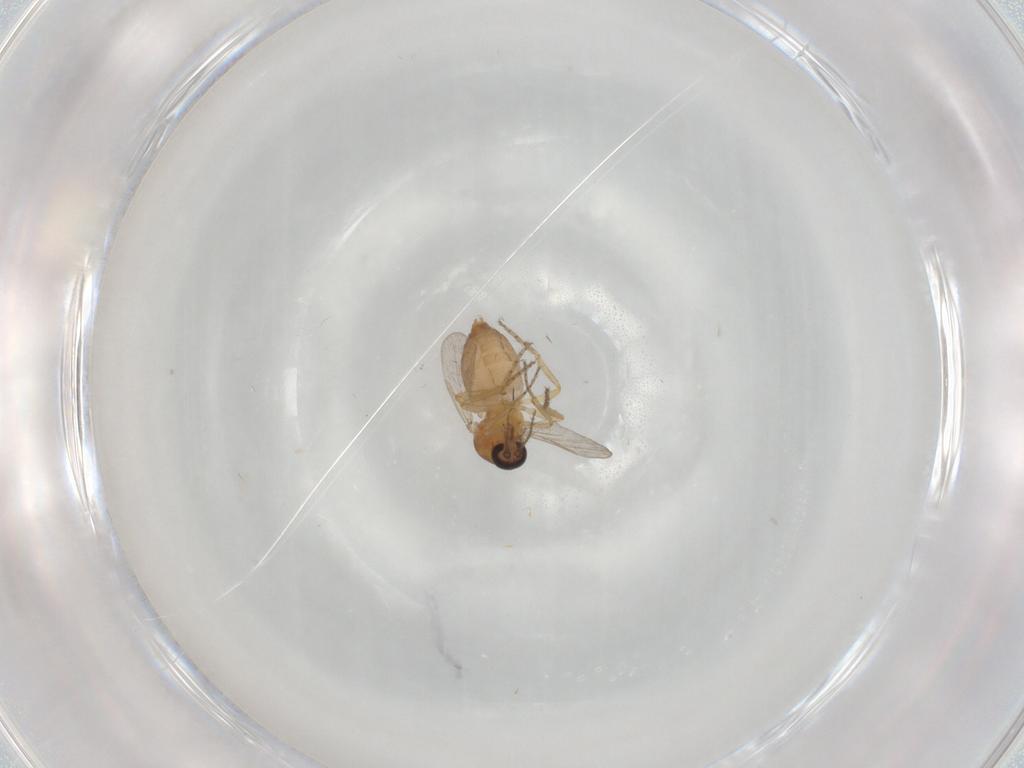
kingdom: Animalia
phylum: Arthropoda
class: Insecta
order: Diptera
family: Ceratopogonidae
